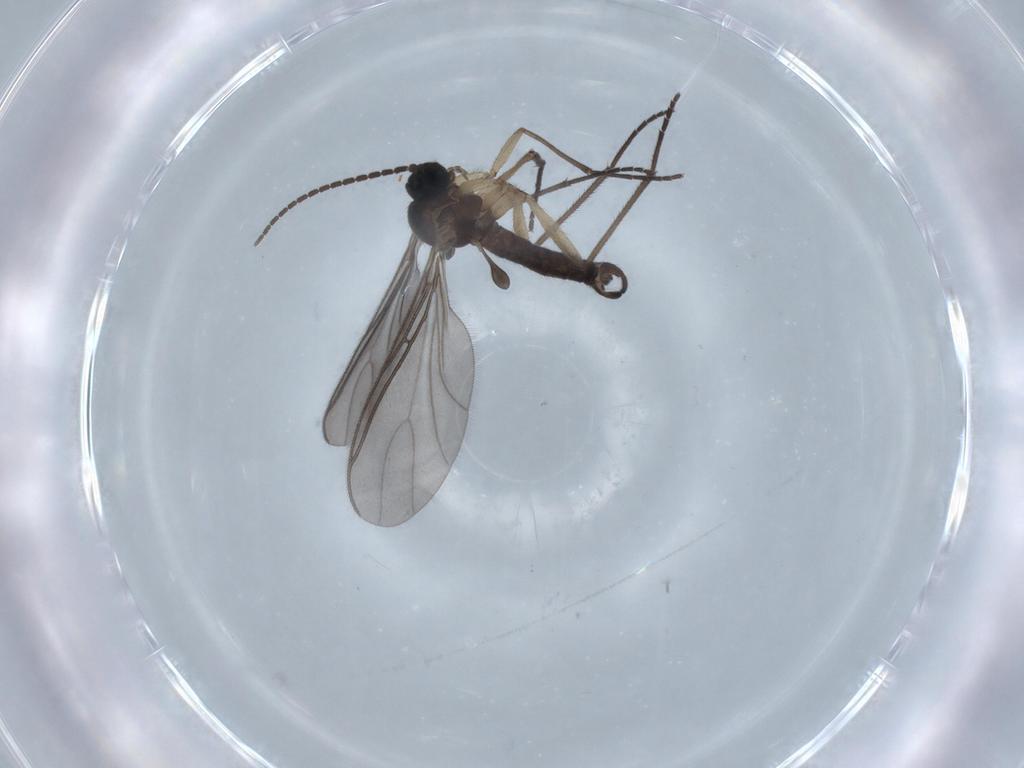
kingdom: Animalia
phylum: Arthropoda
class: Insecta
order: Diptera
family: Sciaridae
